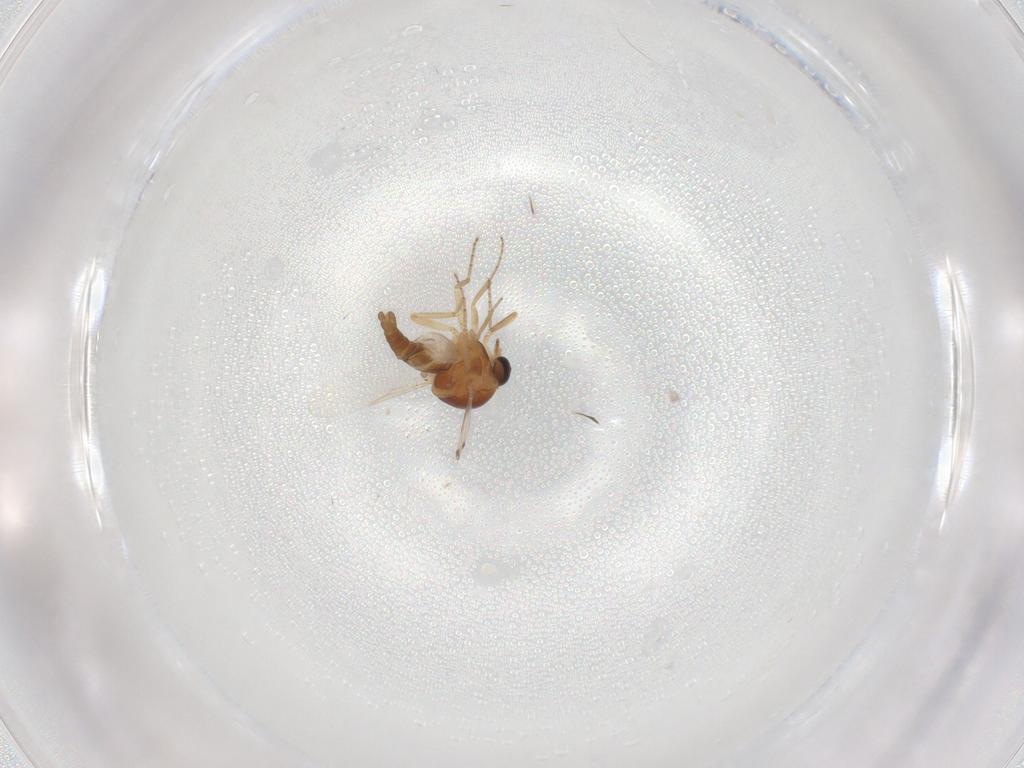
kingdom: Animalia
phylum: Arthropoda
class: Insecta
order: Diptera
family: Ceratopogonidae
